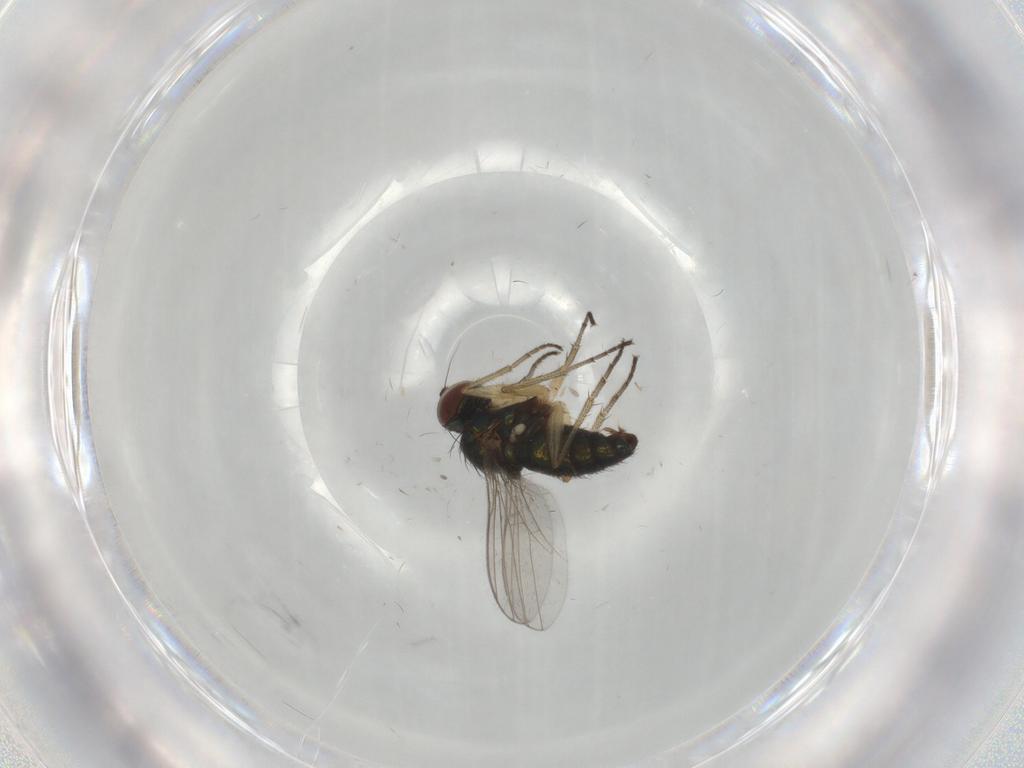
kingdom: Animalia
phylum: Arthropoda
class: Insecta
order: Diptera
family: Dolichopodidae
